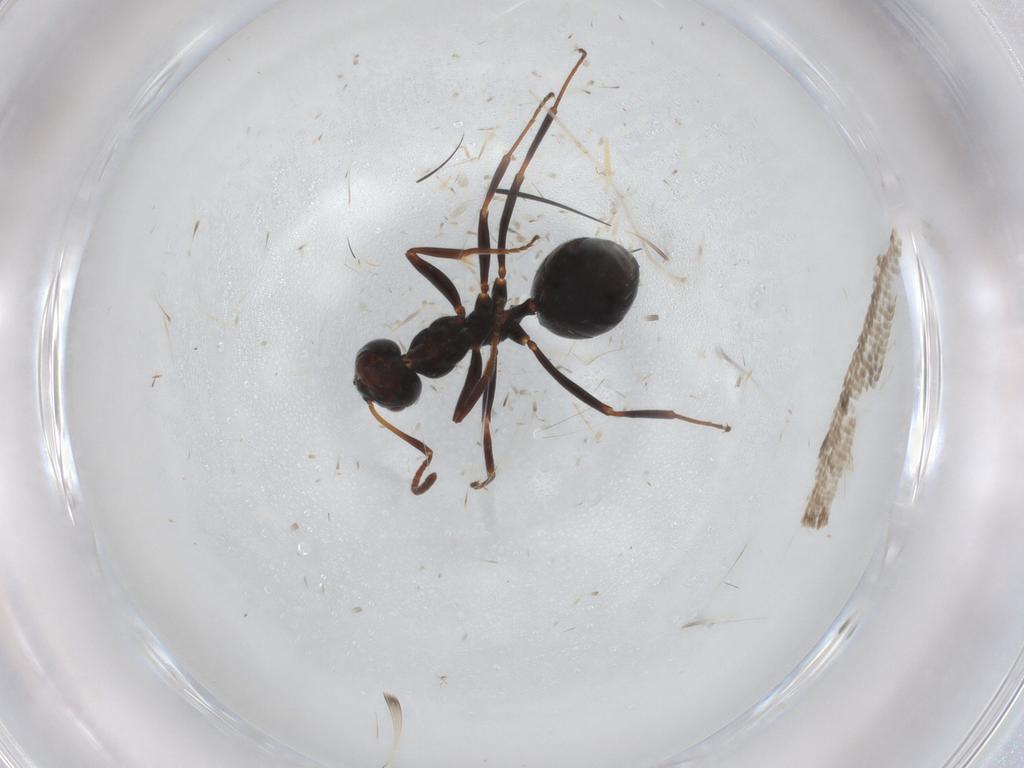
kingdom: Animalia
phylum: Arthropoda
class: Insecta
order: Hymenoptera
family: Formicidae
